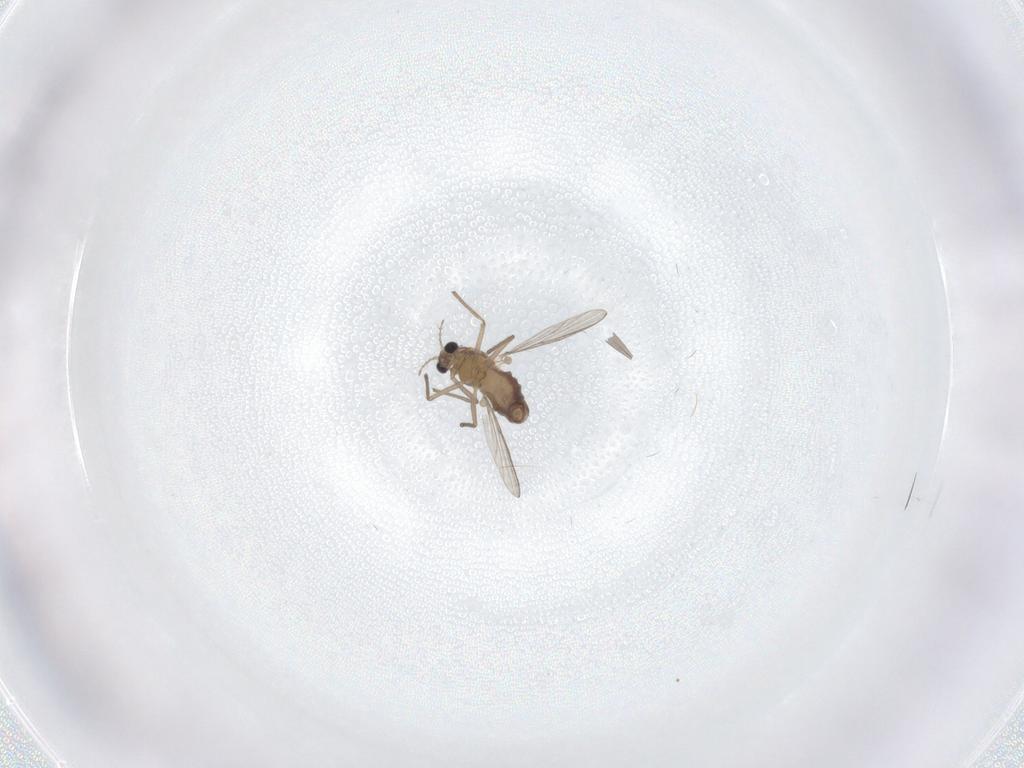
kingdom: Animalia
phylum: Arthropoda
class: Insecta
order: Diptera
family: Chironomidae
